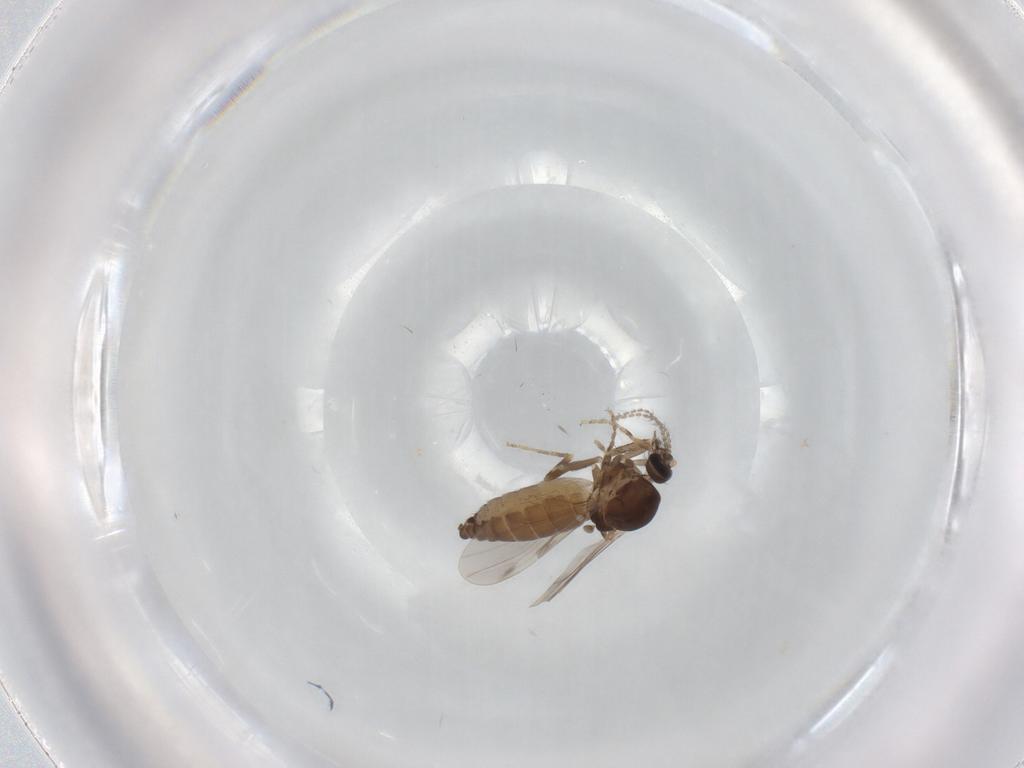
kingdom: Animalia
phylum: Arthropoda
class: Insecta
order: Diptera
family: Ceratopogonidae
